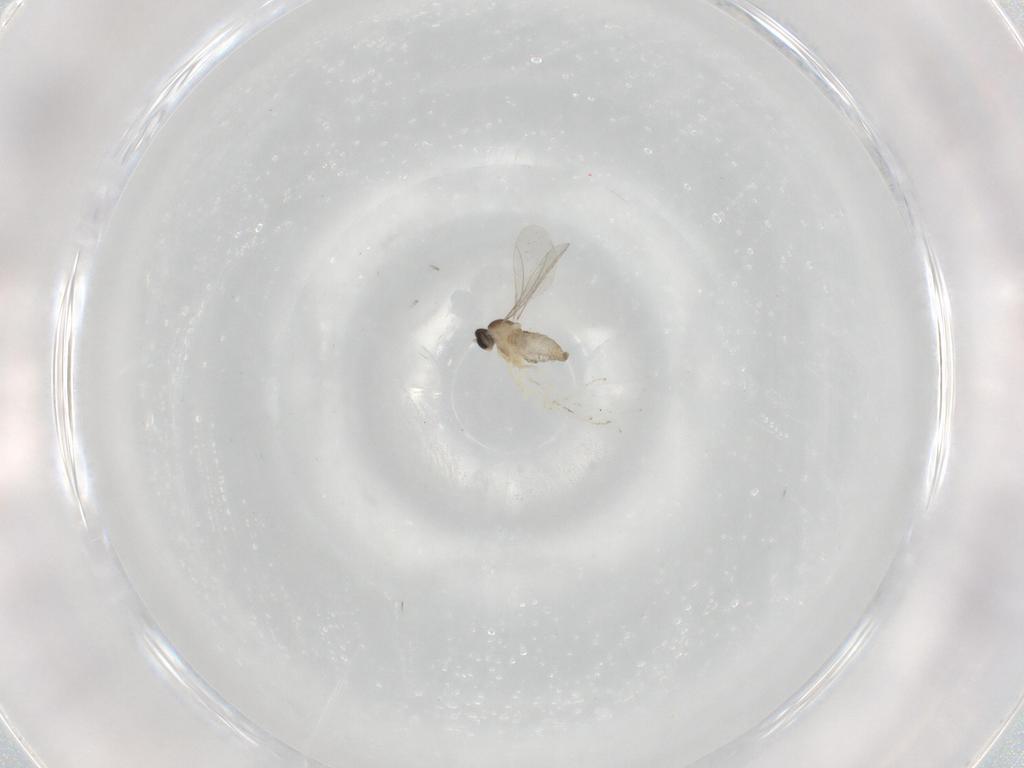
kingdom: Animalia
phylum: Arthropoda
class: Insecta
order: Diptera
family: Cecidomyiidae
